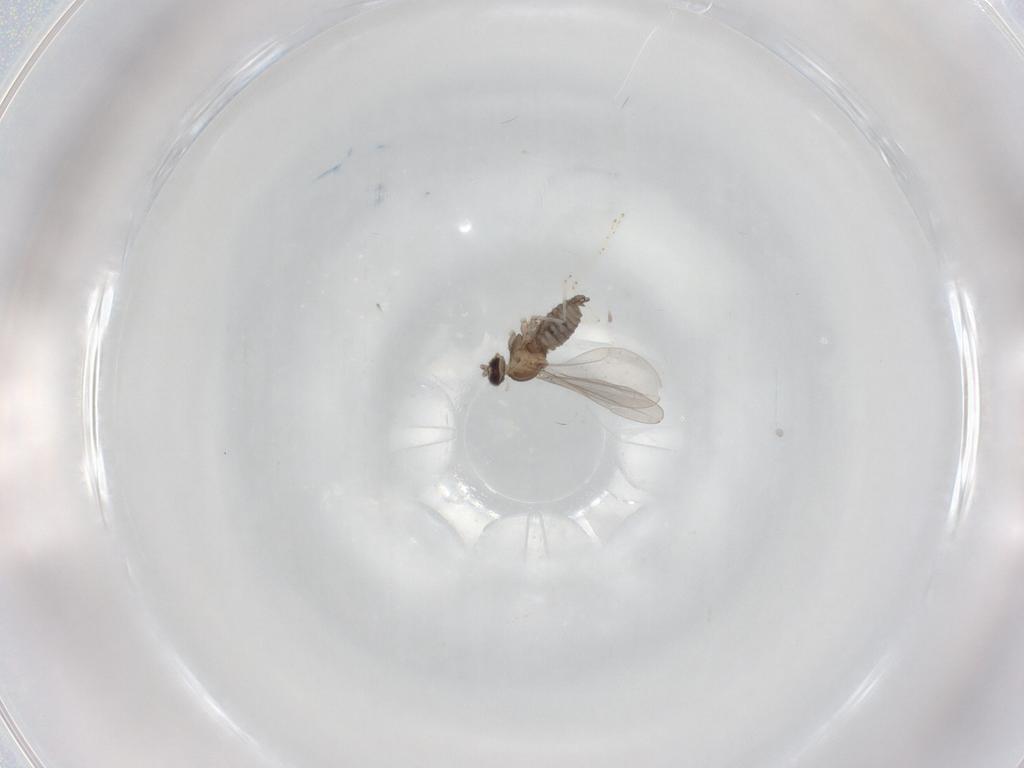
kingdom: Animalia
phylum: Arthropoda
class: Insecta
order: Diptera
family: Cecidomyiidae
